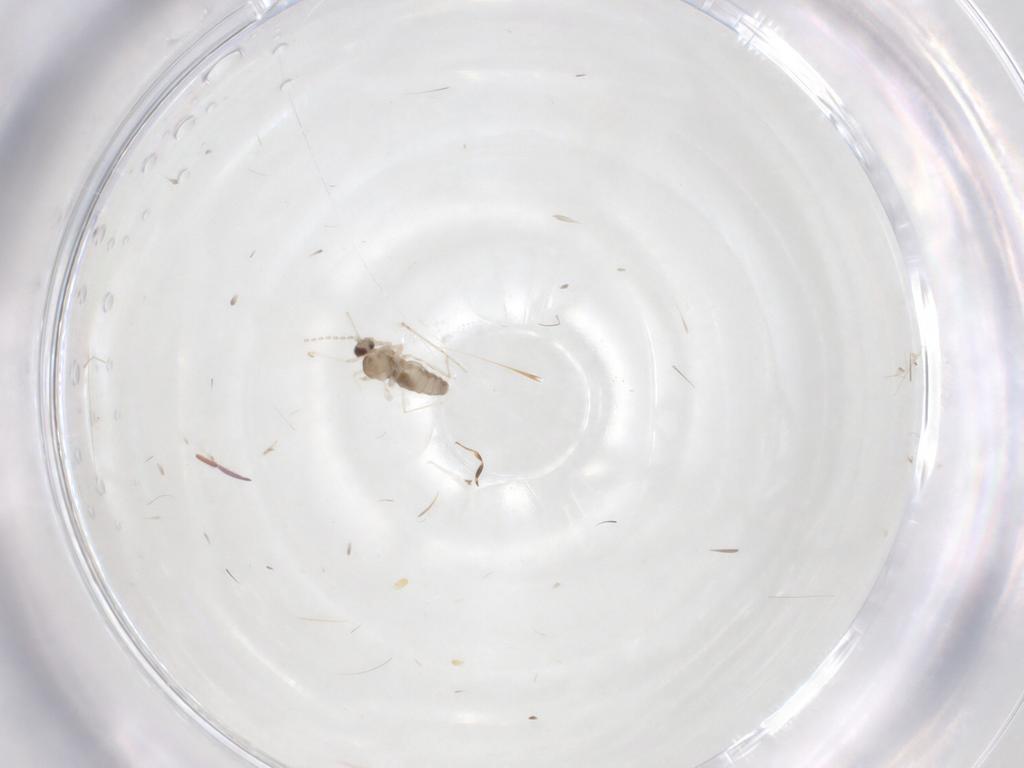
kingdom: Animalia
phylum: Arthropoda
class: Insecta
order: Diptera
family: Cecidomyiidae
